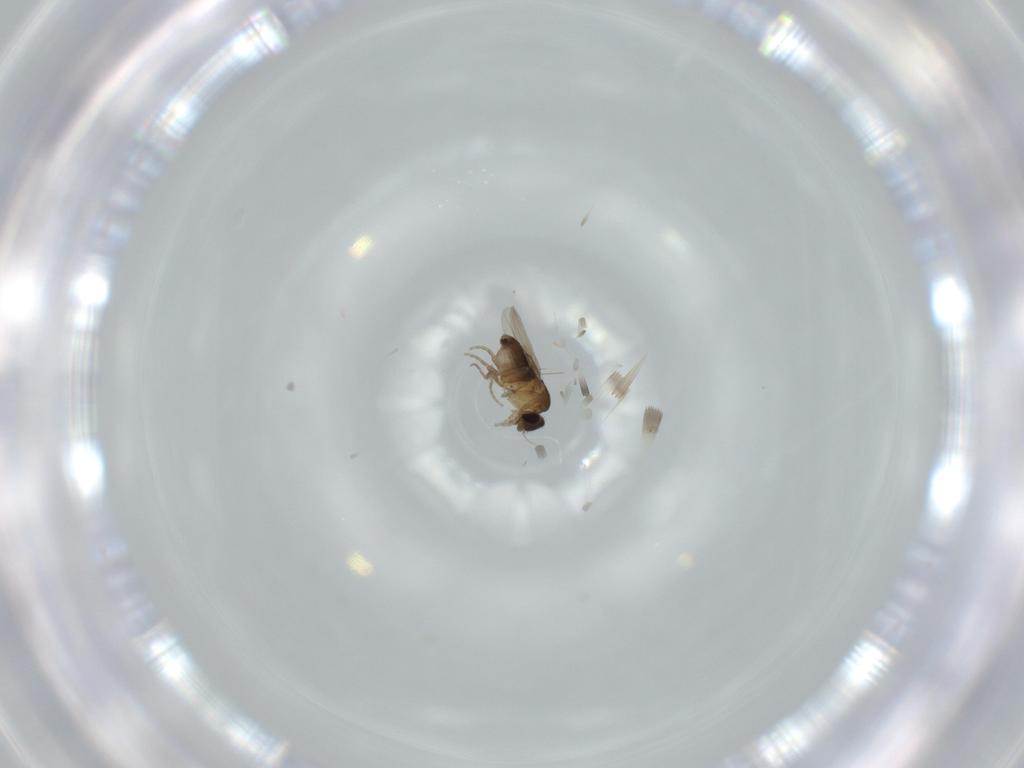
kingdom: Animalia
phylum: Arthropoda
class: Insecta
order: Diptera
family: Phoridae
